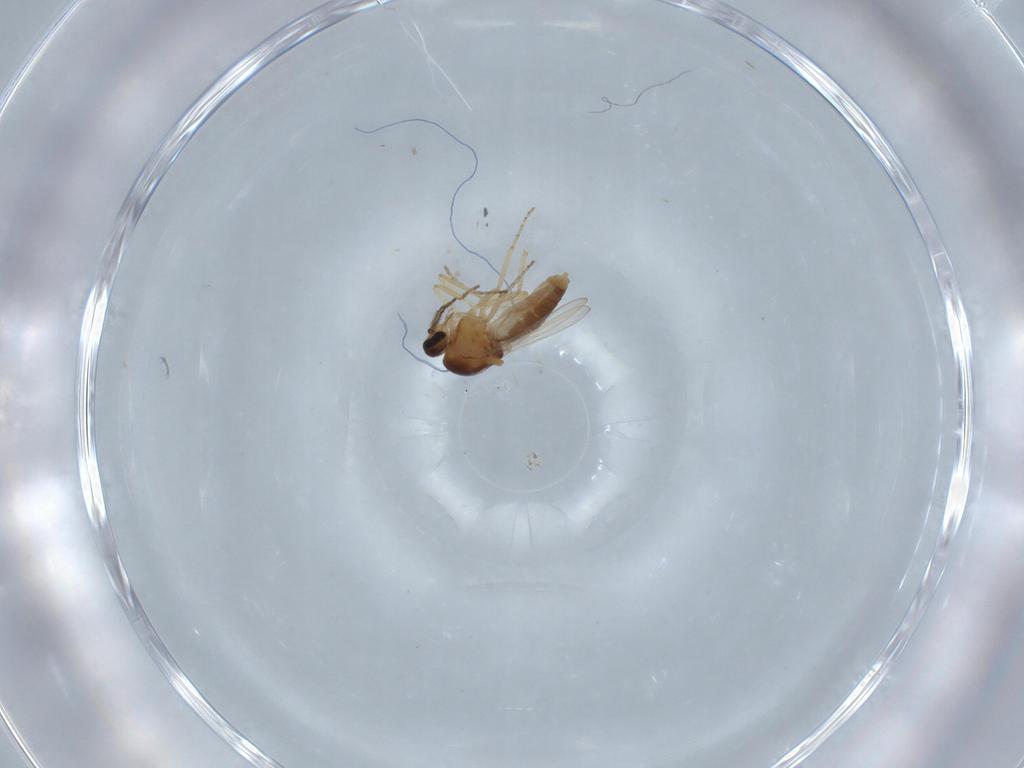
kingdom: Animalia
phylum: Arthropoda
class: Insecta
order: Diptera
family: Ceratopogonidae
